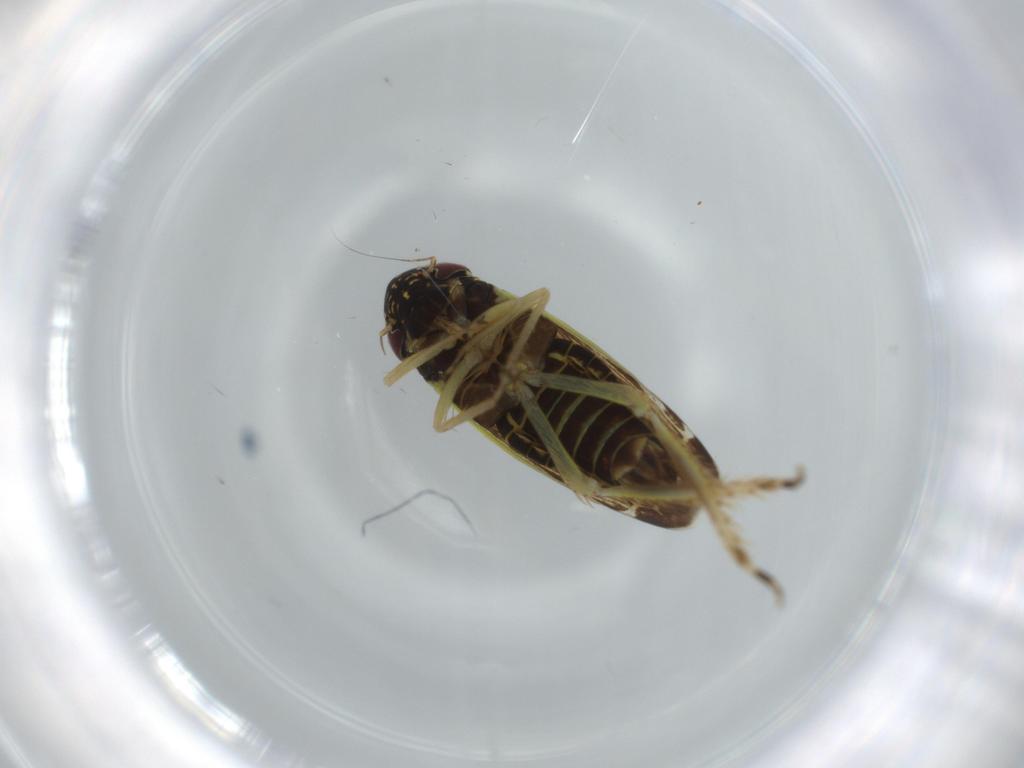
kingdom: Animalia
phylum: Arthropoda
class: Insecta
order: Hemiptera
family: Cicadellidae
